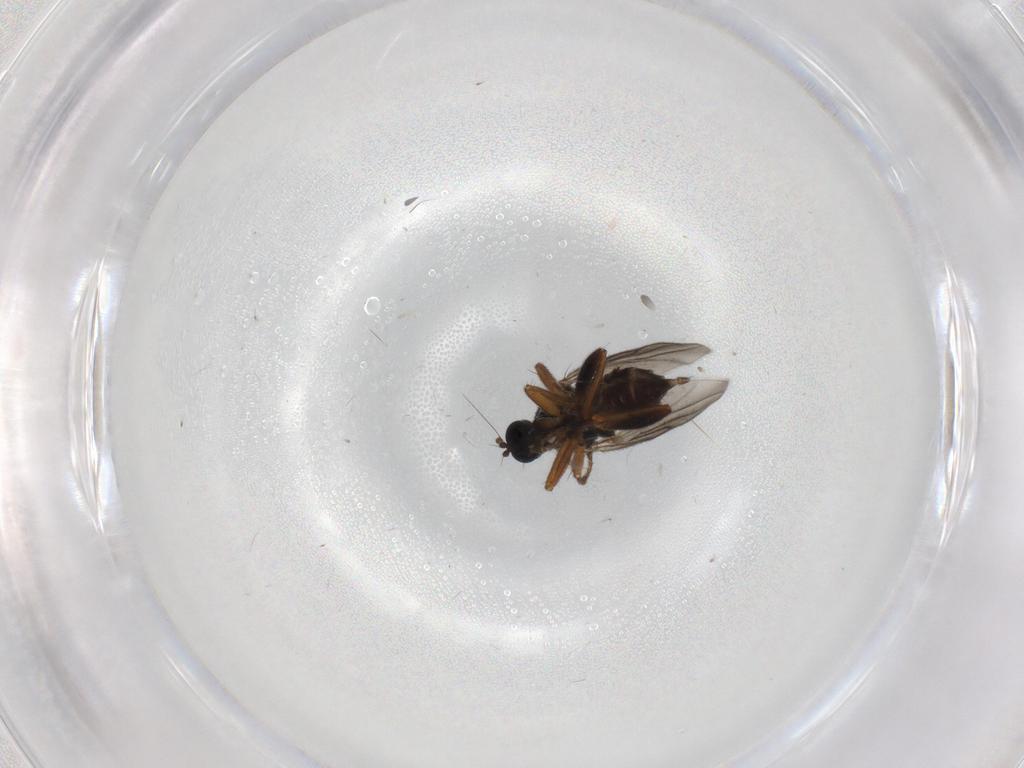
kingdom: Animalia
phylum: Arthropoda
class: Insecta
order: Diptera
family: Hybotidae
